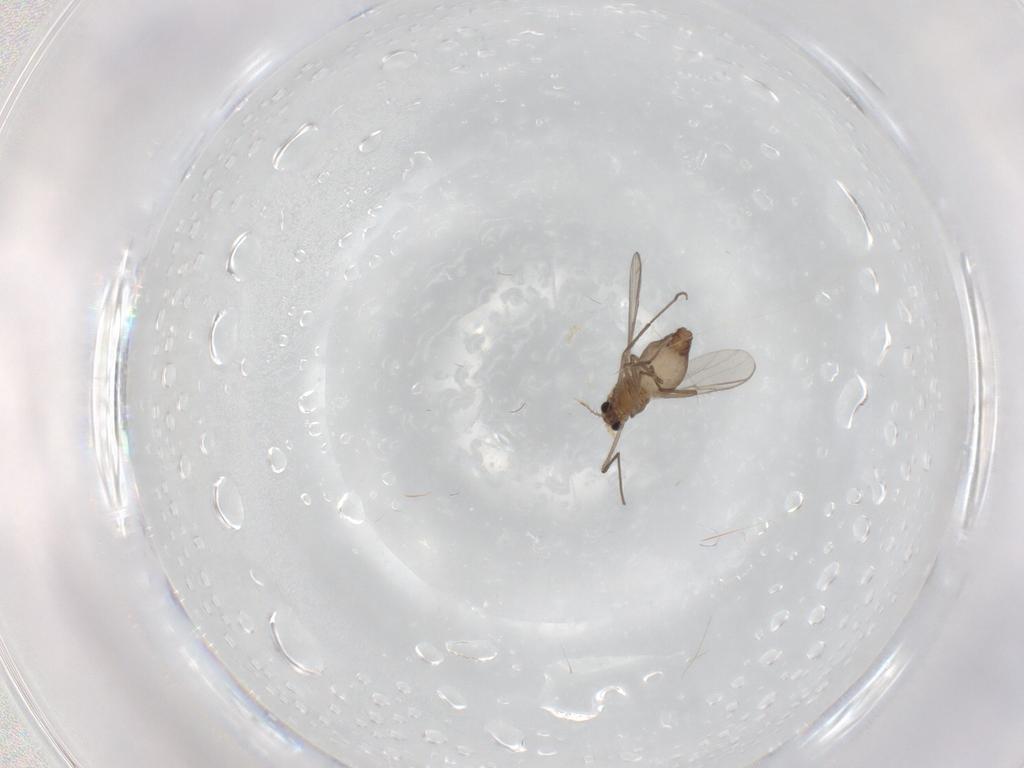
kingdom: Animalia
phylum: Arthropoda
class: Insecta
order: Diptera
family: Chironomidae
